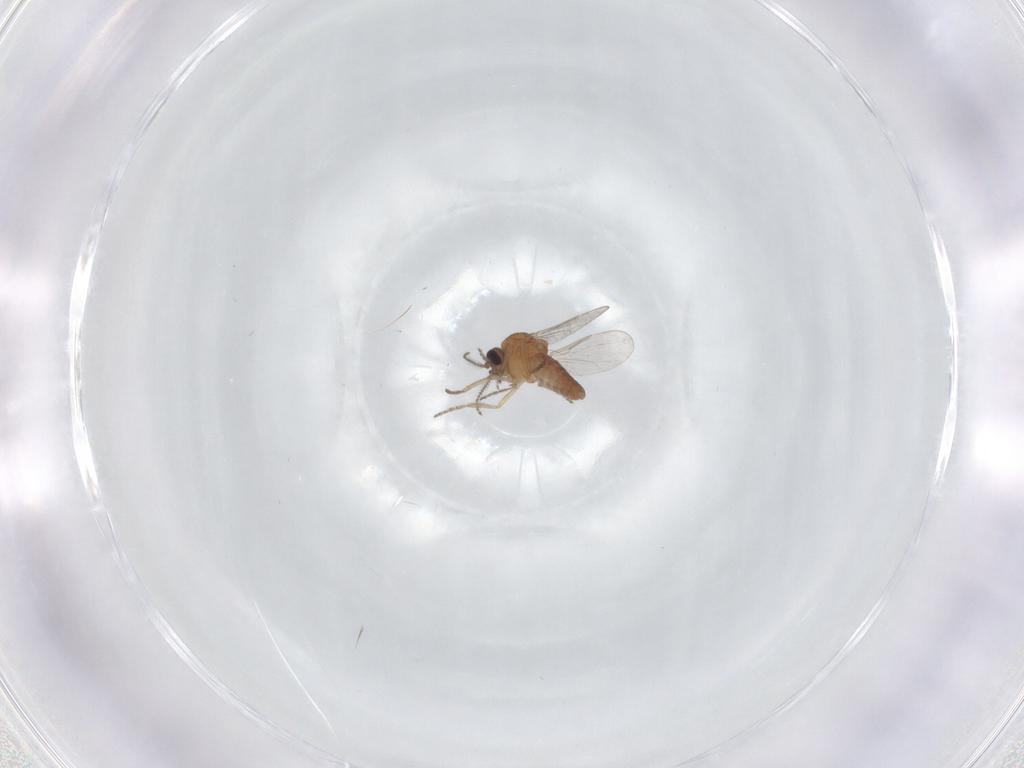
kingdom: Animalia
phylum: Arthropoda
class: Insecta
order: Diptera
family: Ceratopogonidae
